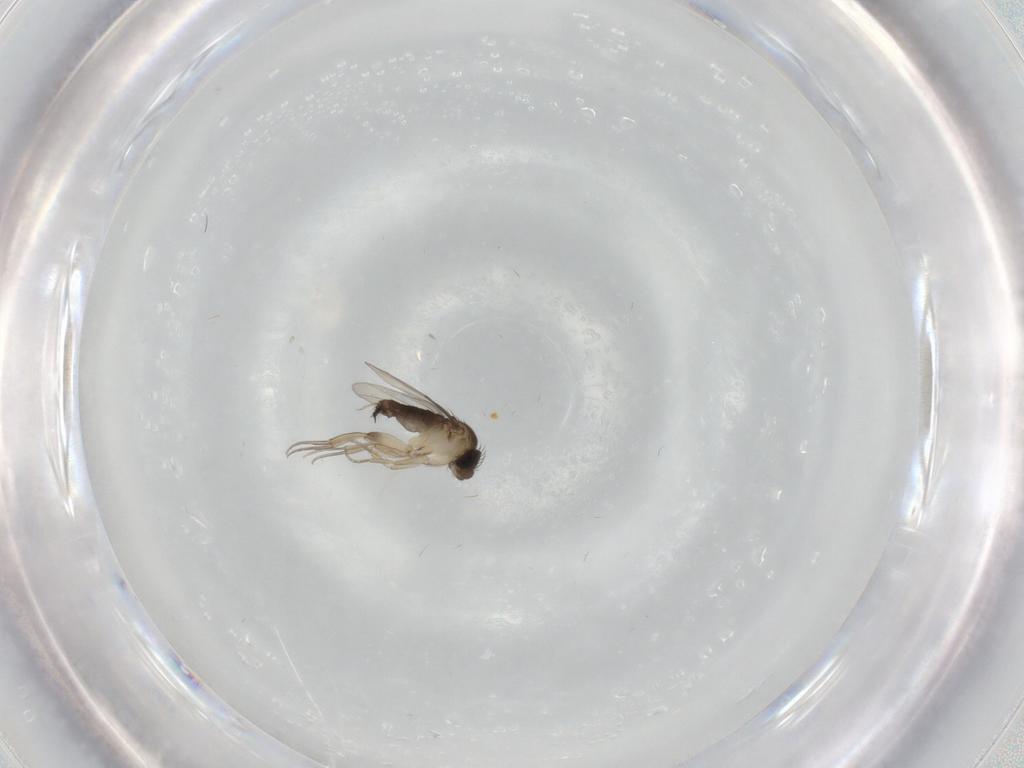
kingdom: Animalia
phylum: Arthropoda
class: Insecta
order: Diptera
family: Phoridae
